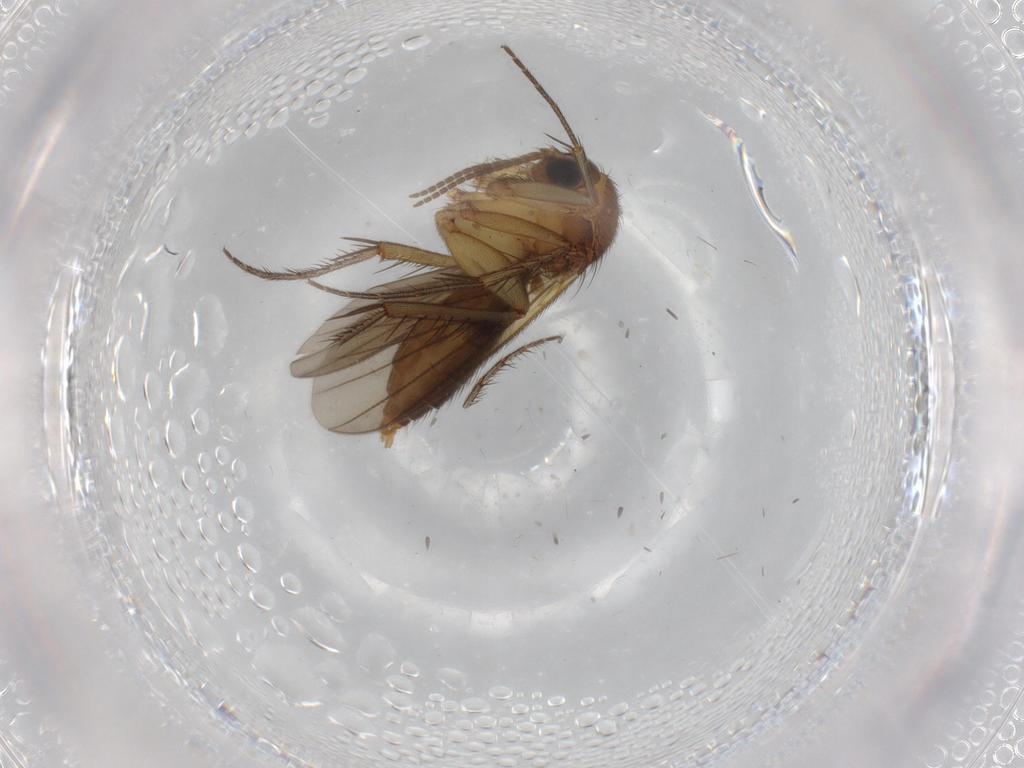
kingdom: Animalia
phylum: Arthropoda
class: Insecta
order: Diptera
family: Mycetophilidae
